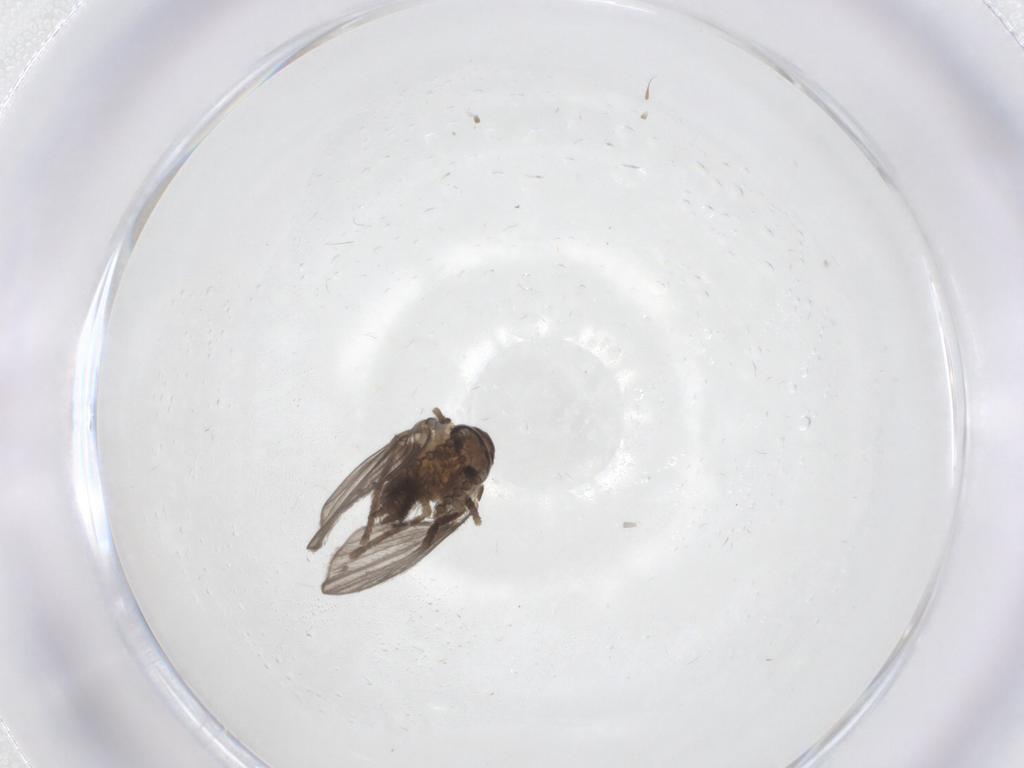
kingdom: Animalia
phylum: Arthropoda
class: Insecta
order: Diptera
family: Psychodidae
